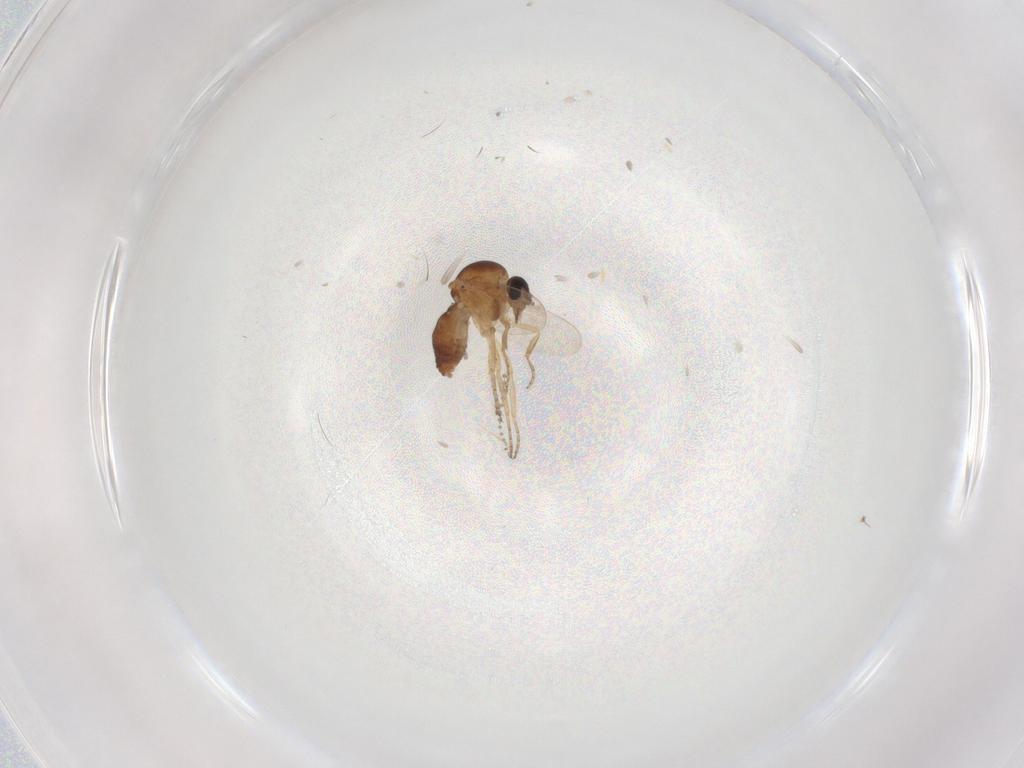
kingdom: Animalia
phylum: Arthropoda
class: Insecta
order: Diptera
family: Ceratopogonidae
